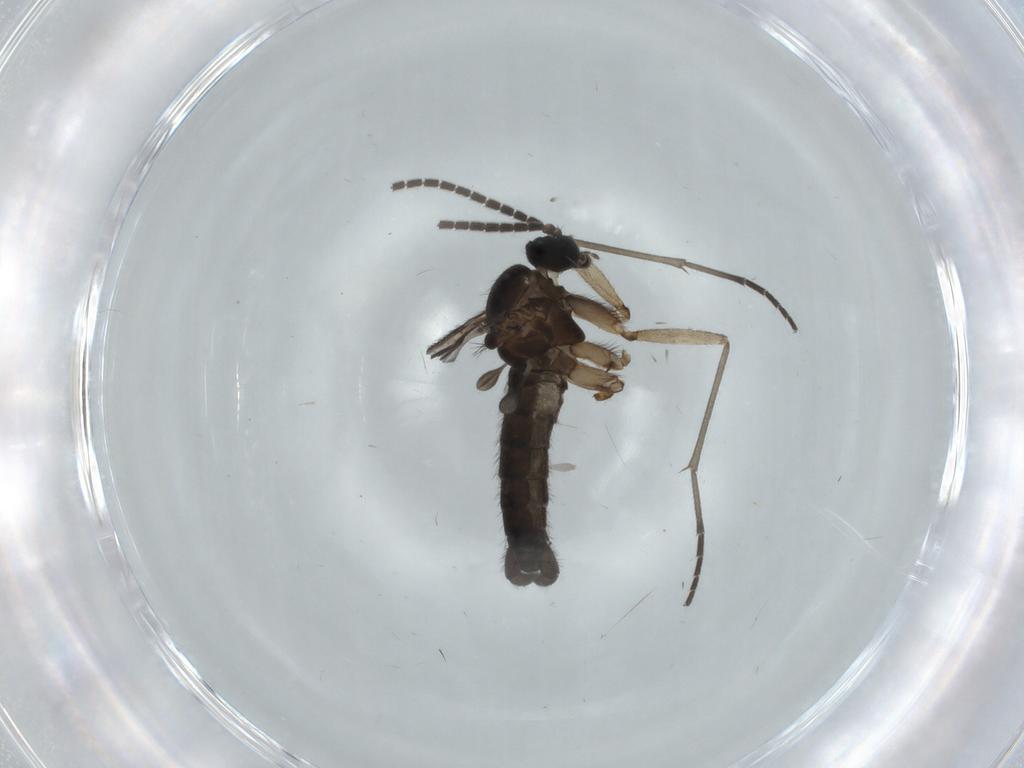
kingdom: Animalia
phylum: Arthropoda
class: Insecta
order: Diptera
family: Sciaridae
